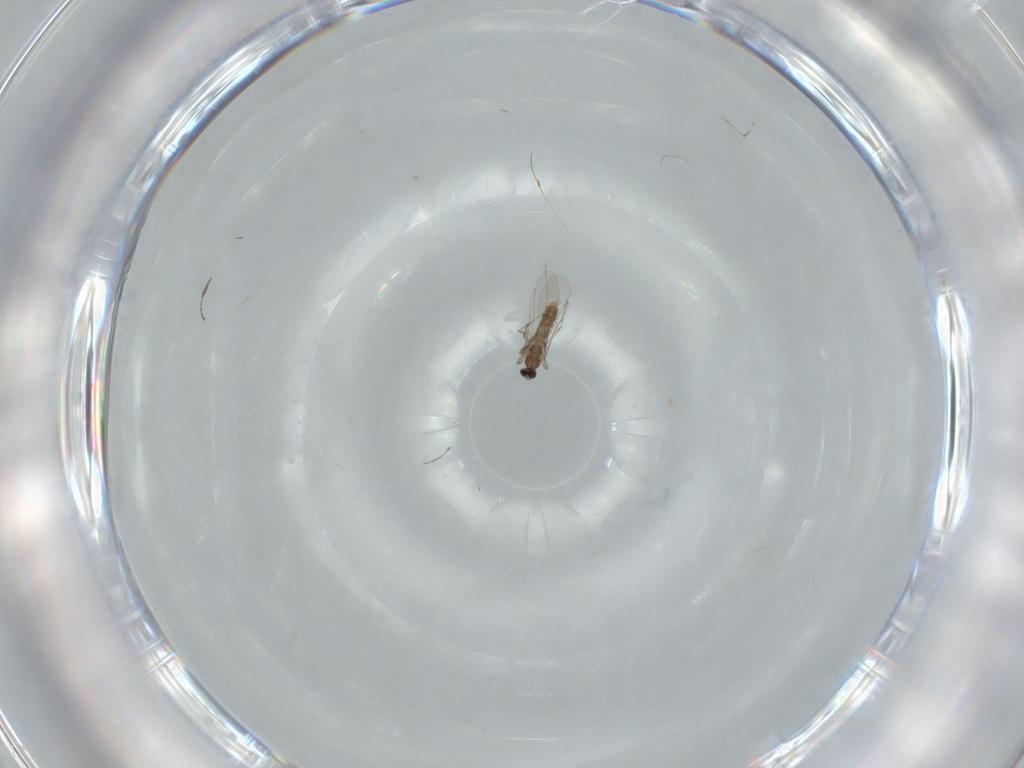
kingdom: Animalia
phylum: Arthropoda
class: Insecta
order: Diptera
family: Cecidomyiidae
